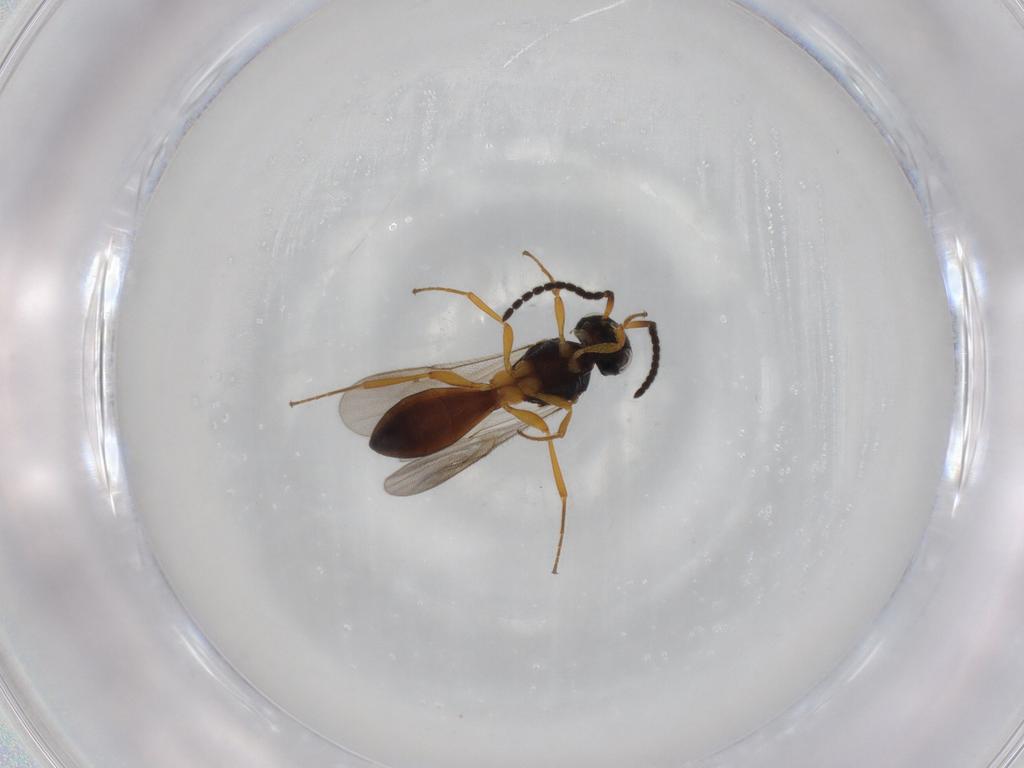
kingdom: Animalia
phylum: Arthropoda
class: Insecta
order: Hymenoptera
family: Scelionidae
